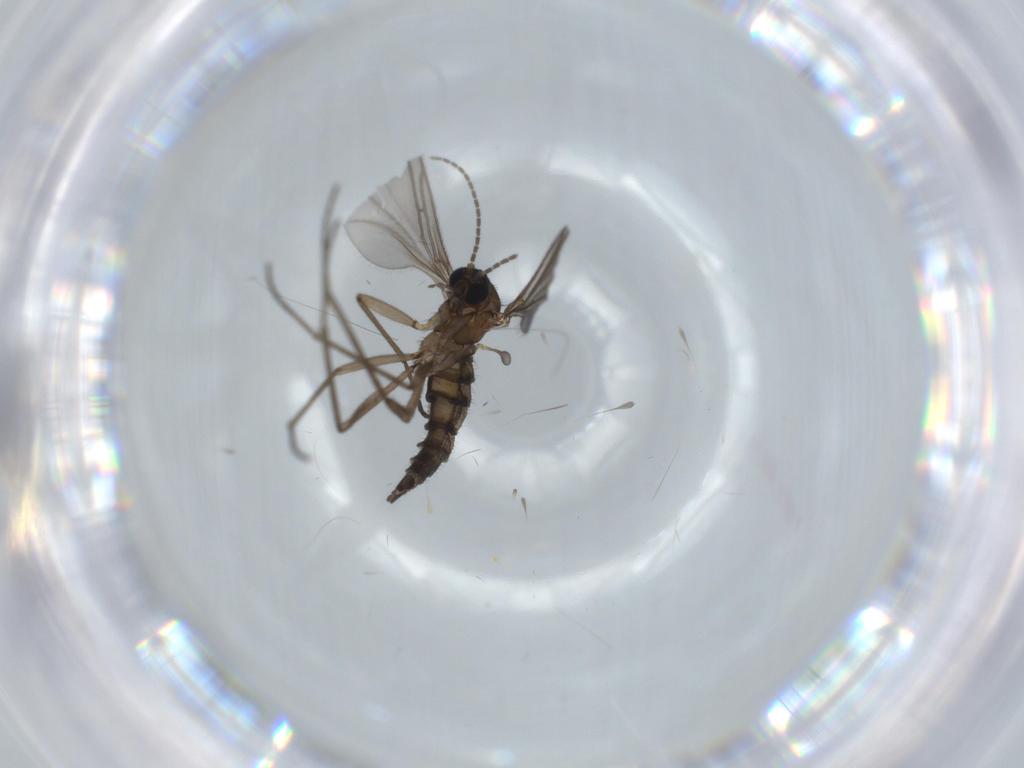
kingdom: Animalia
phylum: Arthropoda
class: Insecta
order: Diptera
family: Sciaridae
